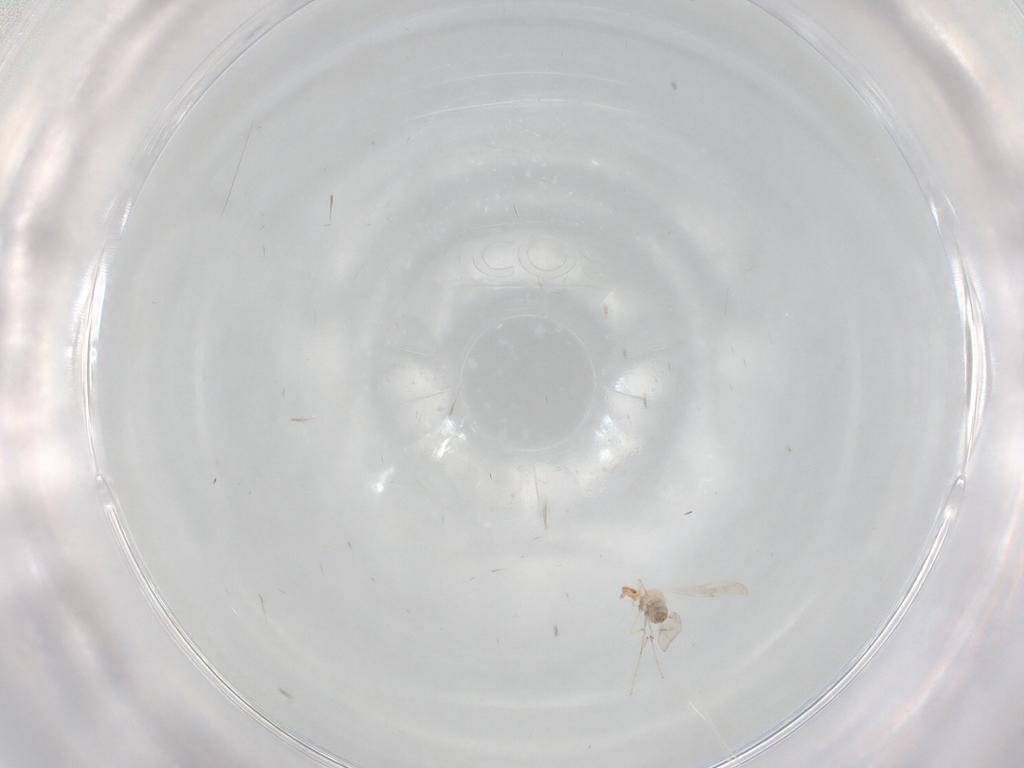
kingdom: Animalia
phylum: Arthropoda
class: Insecta
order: Diptera
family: Cecidomyiidae
